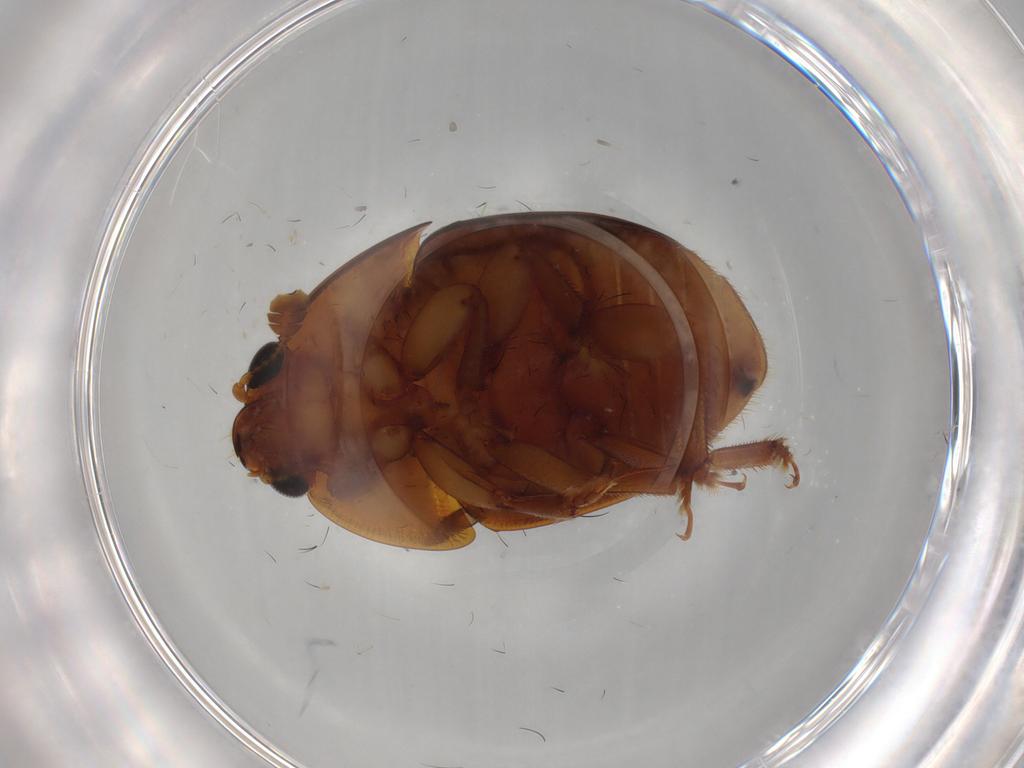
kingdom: Animalia
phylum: Arthropoda
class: Insecta
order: Coleoptera
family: Nitidulidae
